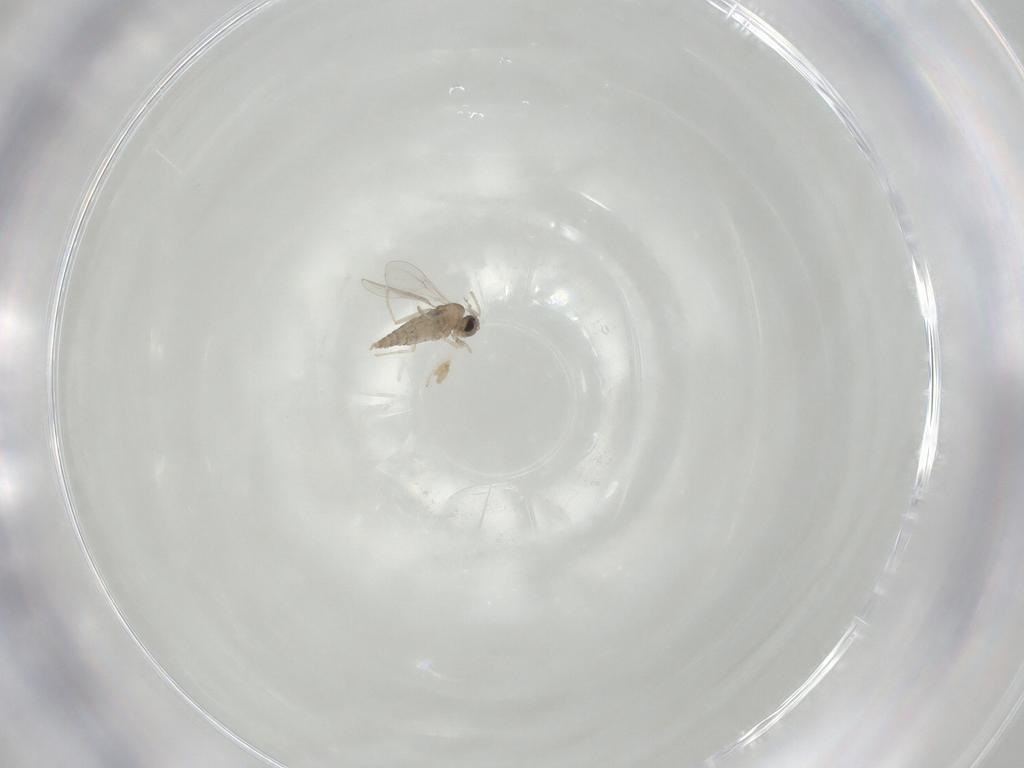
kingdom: Animalia
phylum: Arthropoda
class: Insecta
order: Diptera
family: Cecidomyiidae
